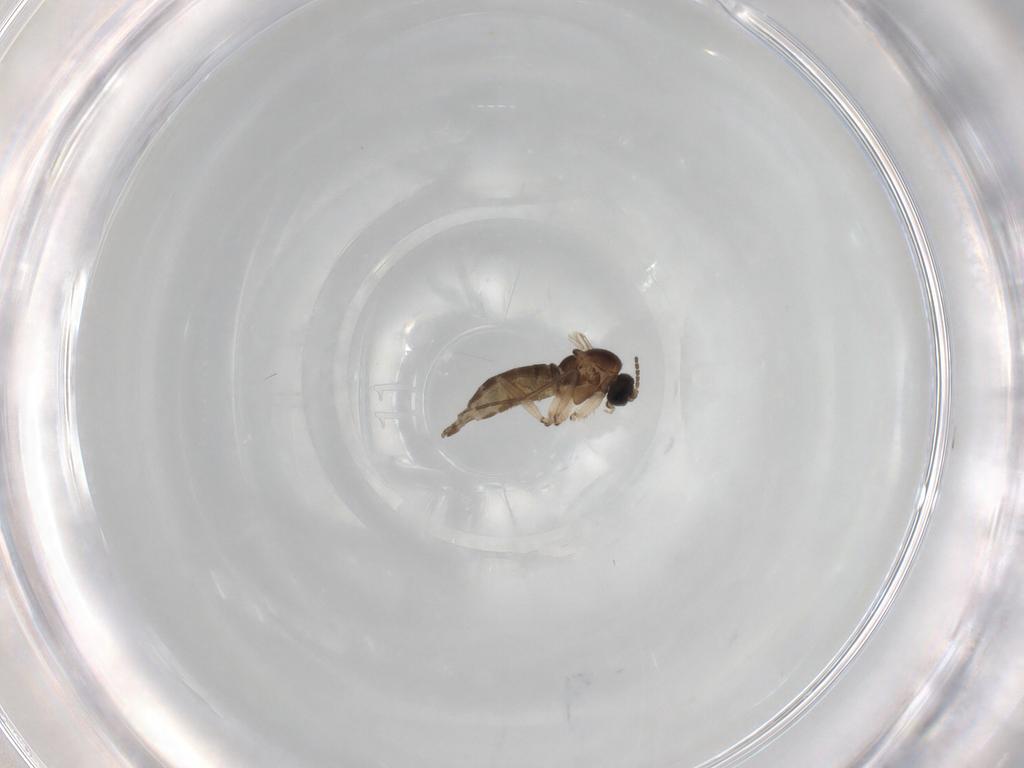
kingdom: Animalia
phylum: Arthropoda
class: Insecta
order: Diptera
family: Sciaridae
